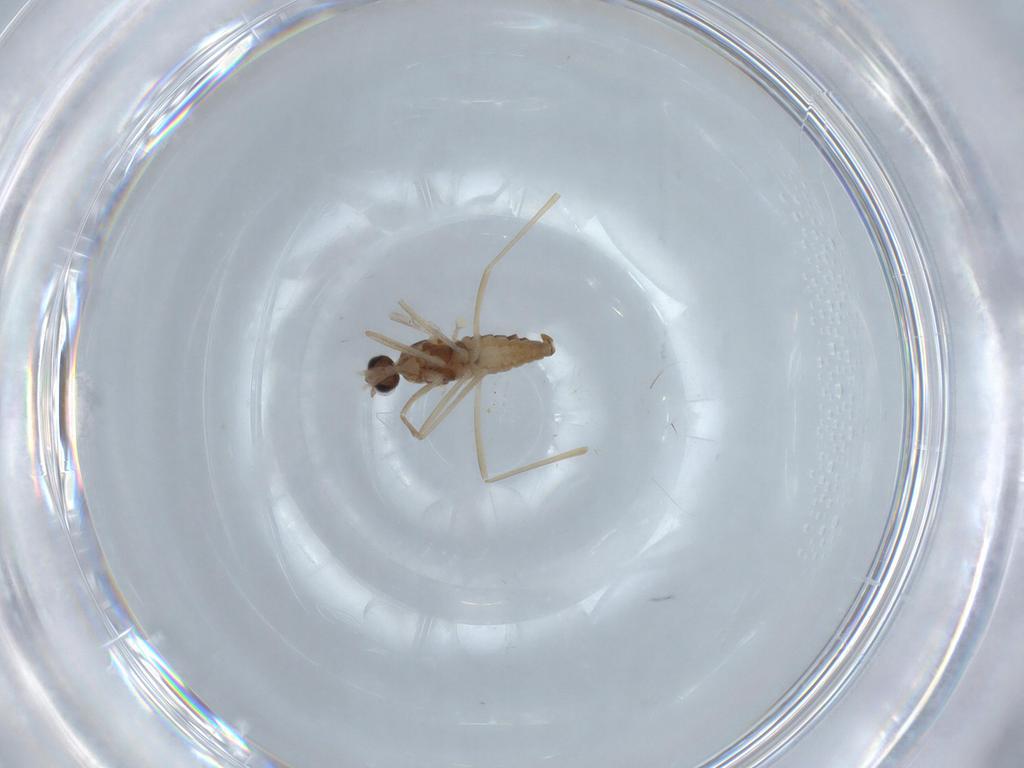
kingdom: Animalia
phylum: Arthropoda
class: Insecta
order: Diptera
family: Cecidomyiidae
